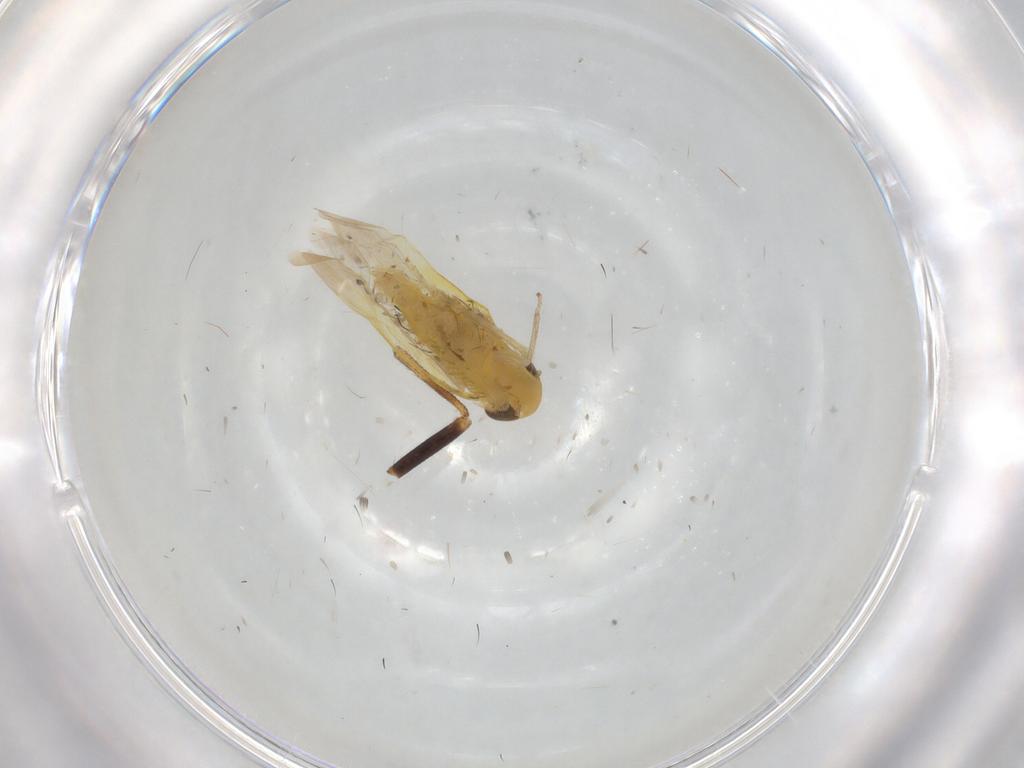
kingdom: Animalia
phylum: Arthropoda
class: Insecta
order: Hemiptera
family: Cicadellidae
